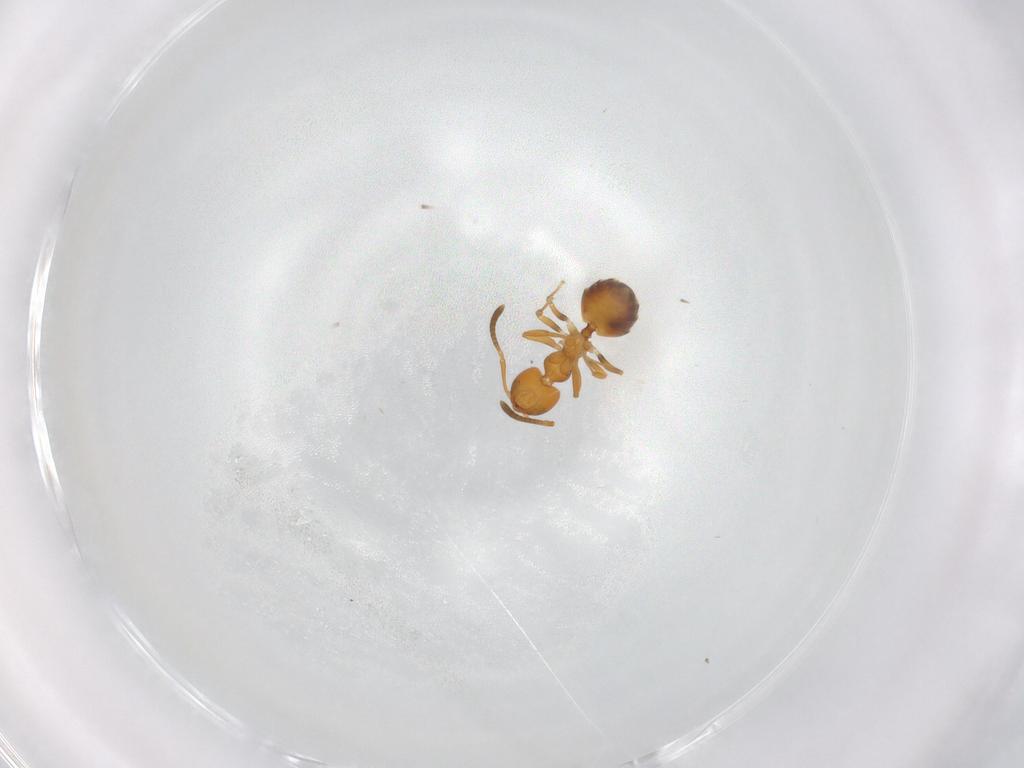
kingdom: Animalia
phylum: Arthropoda
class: Insecta
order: Hymenoptera
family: Formicidae
